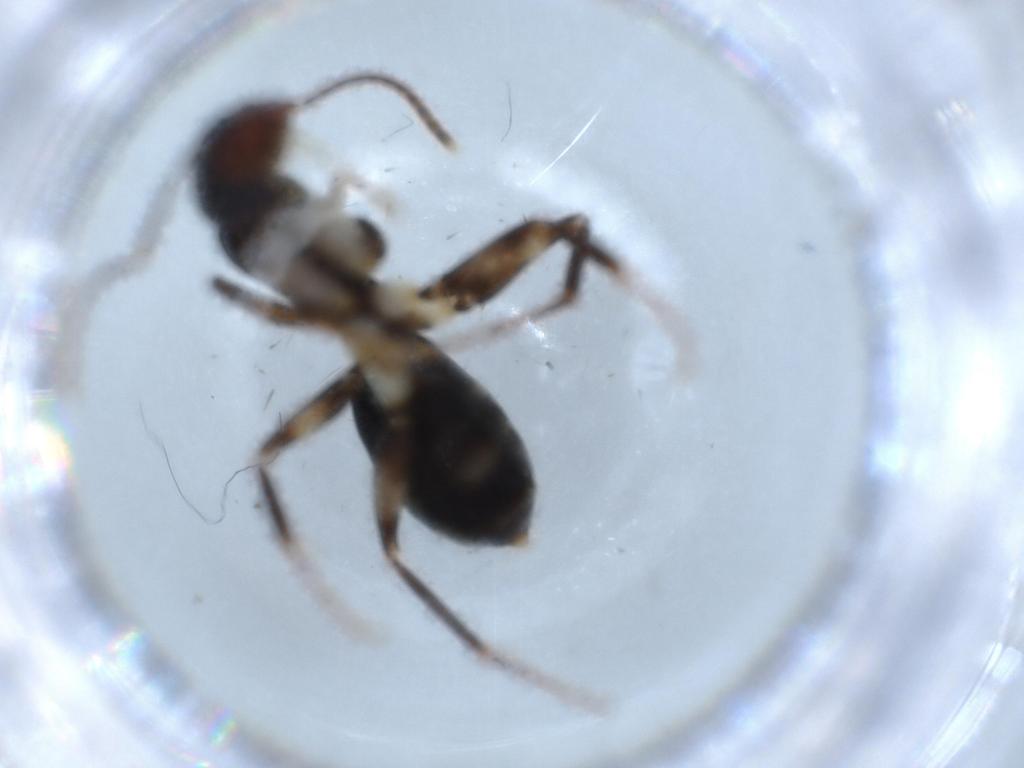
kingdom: Animalia
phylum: Arthropoda
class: Insecta
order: Hymenoptera
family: Formicidae
